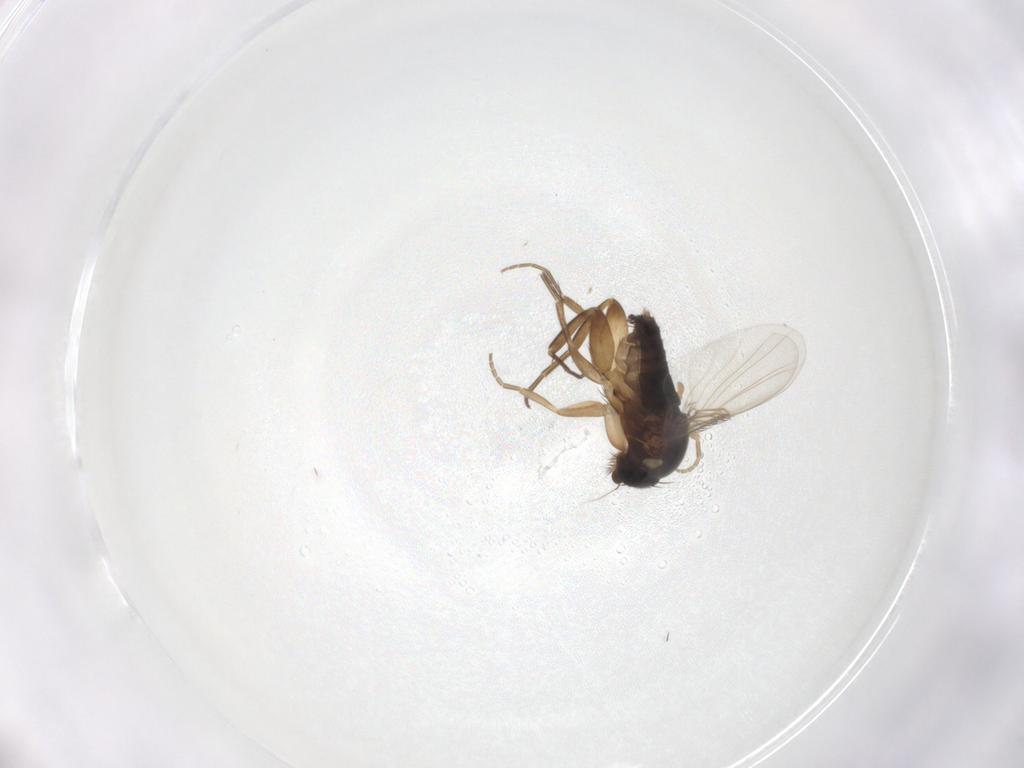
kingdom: Animalia
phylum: Arthropoda
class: Insecta
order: Diptera
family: Phoridae
